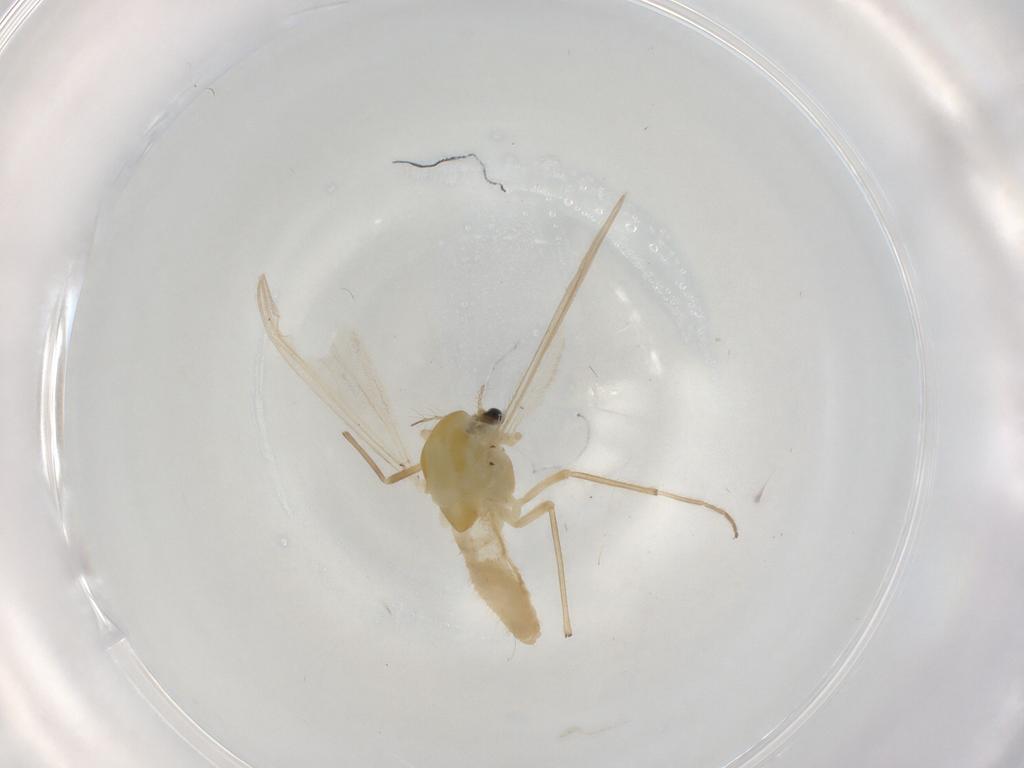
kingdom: Animalia
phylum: Arthropoda
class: Insecta
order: Diptera
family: Chironomidae
